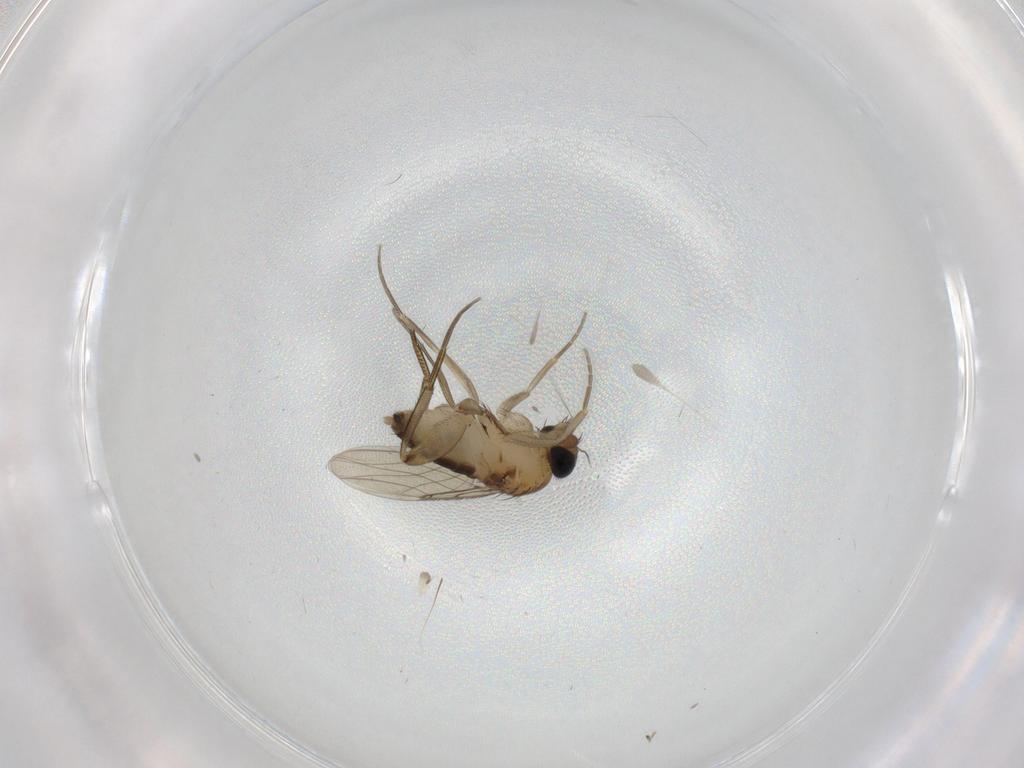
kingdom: Animalia
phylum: Arthropoda
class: Insecta
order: Diptera
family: Phoridae
